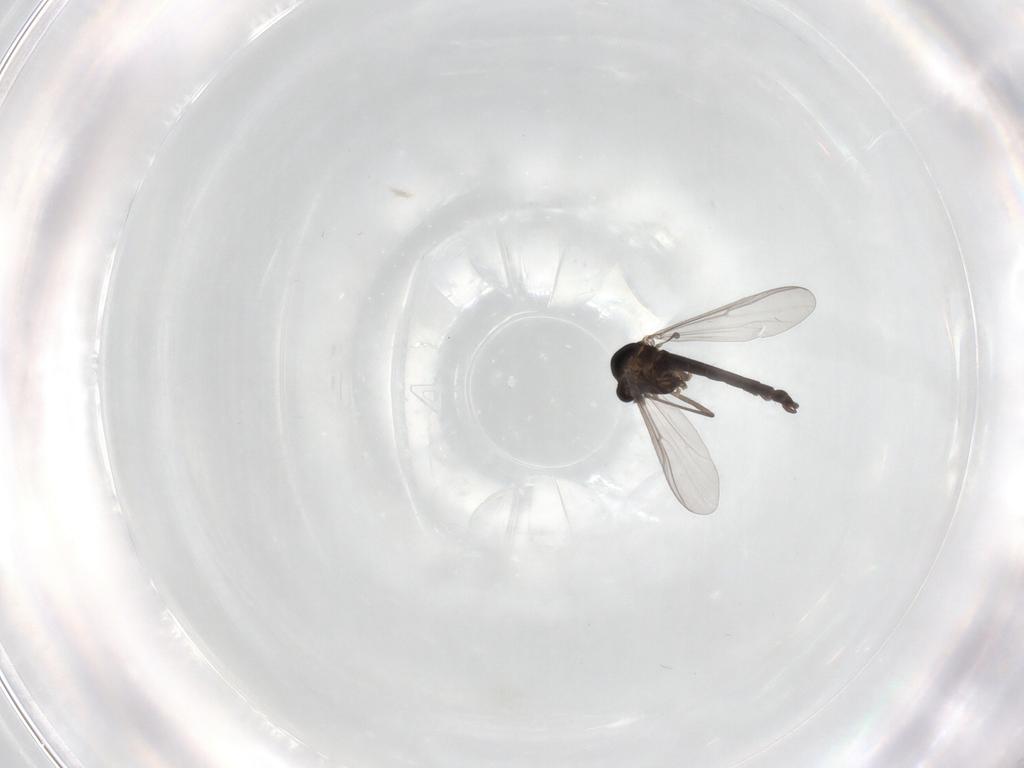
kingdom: Animalia
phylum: Arthropoda
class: Insecta
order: Diptera
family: Chironomidae
